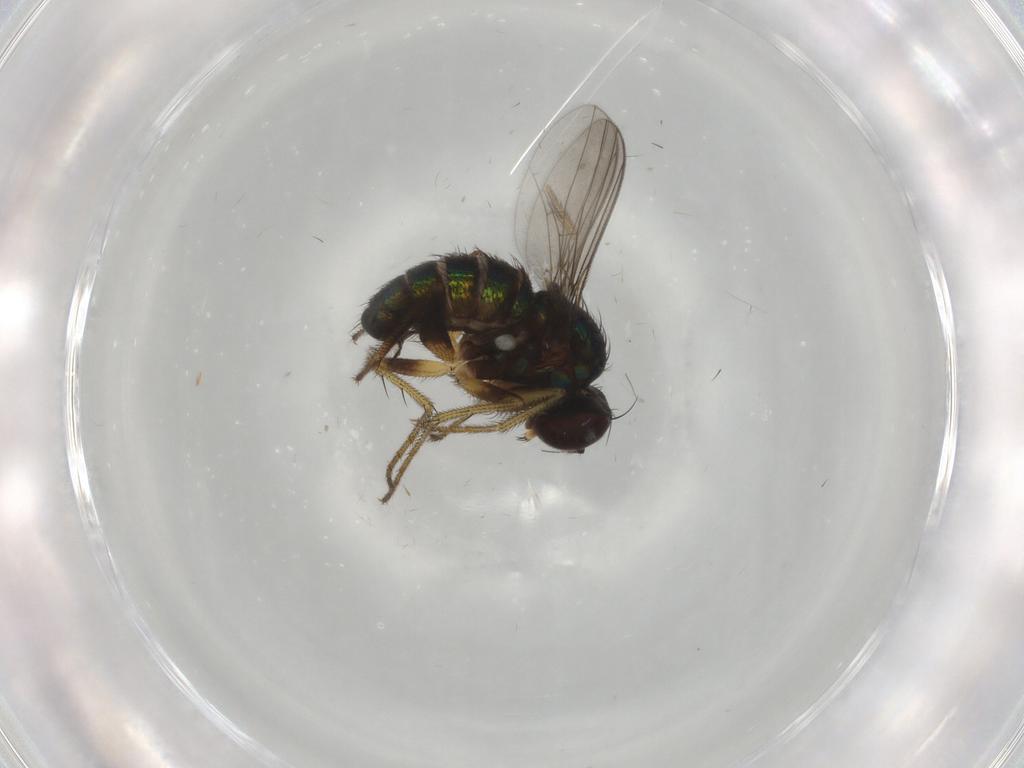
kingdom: Animalia
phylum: Arthropoda
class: Insecta
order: Diptera
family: Dolichopodidae
